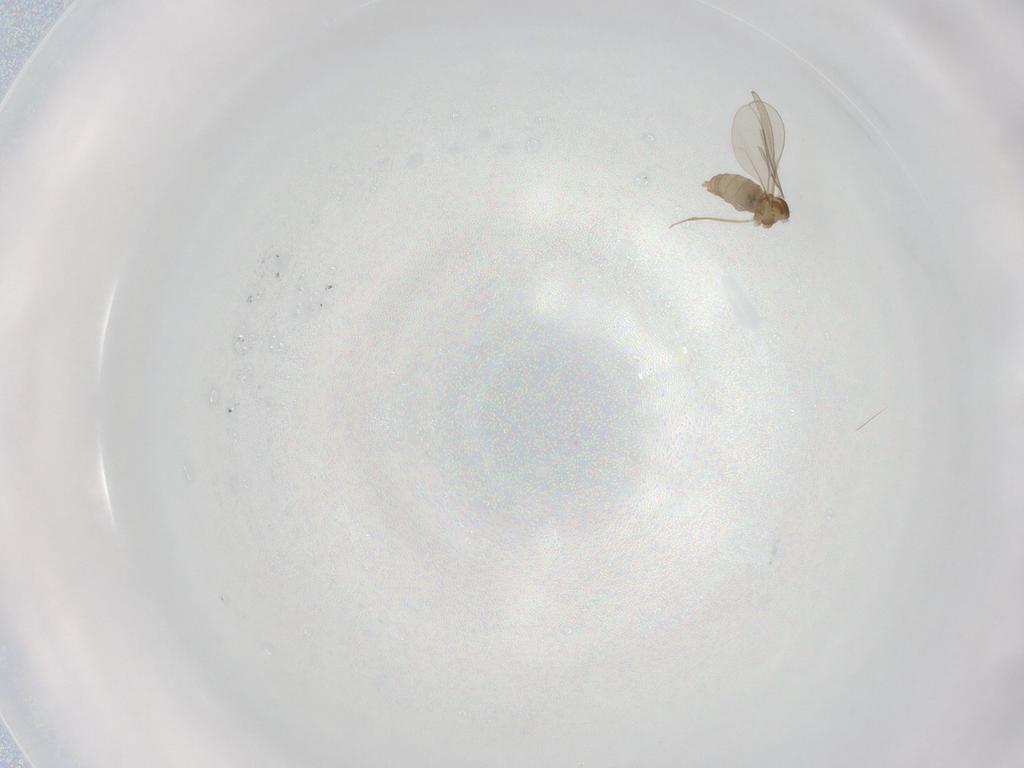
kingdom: Animalia
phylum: Arthropoda
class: Insecta
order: Diptera
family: Cecidomyiidae
